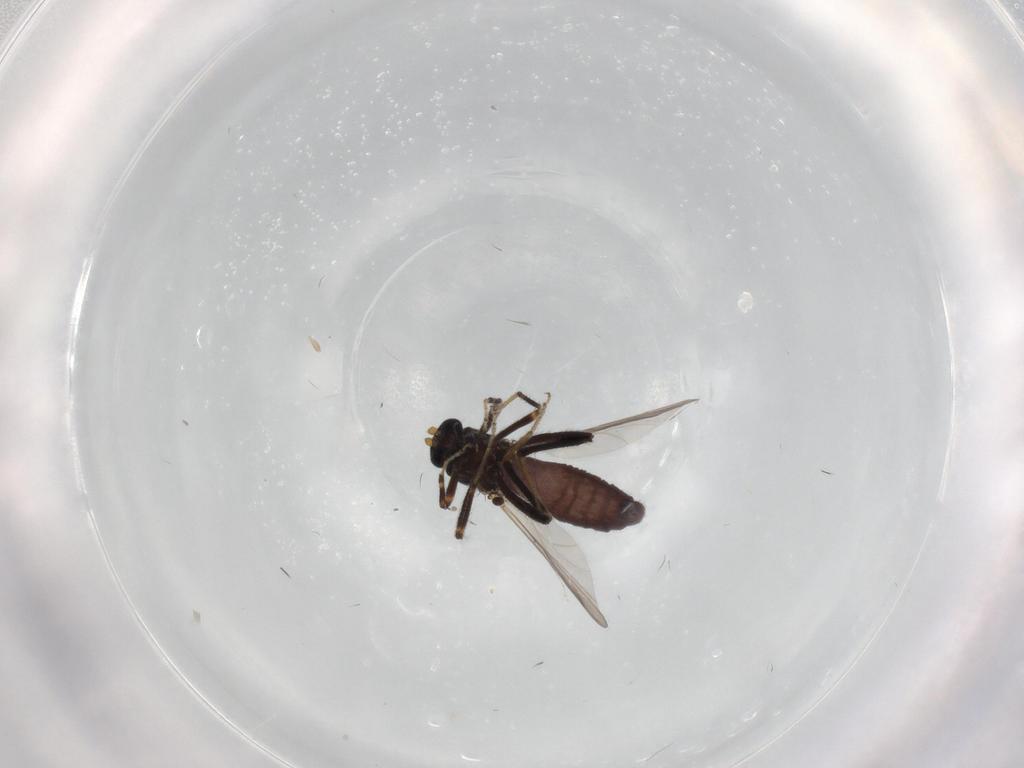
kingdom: Animalia
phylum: Arthropoda
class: Insecta
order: Diptera
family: Ceratopogonidae
